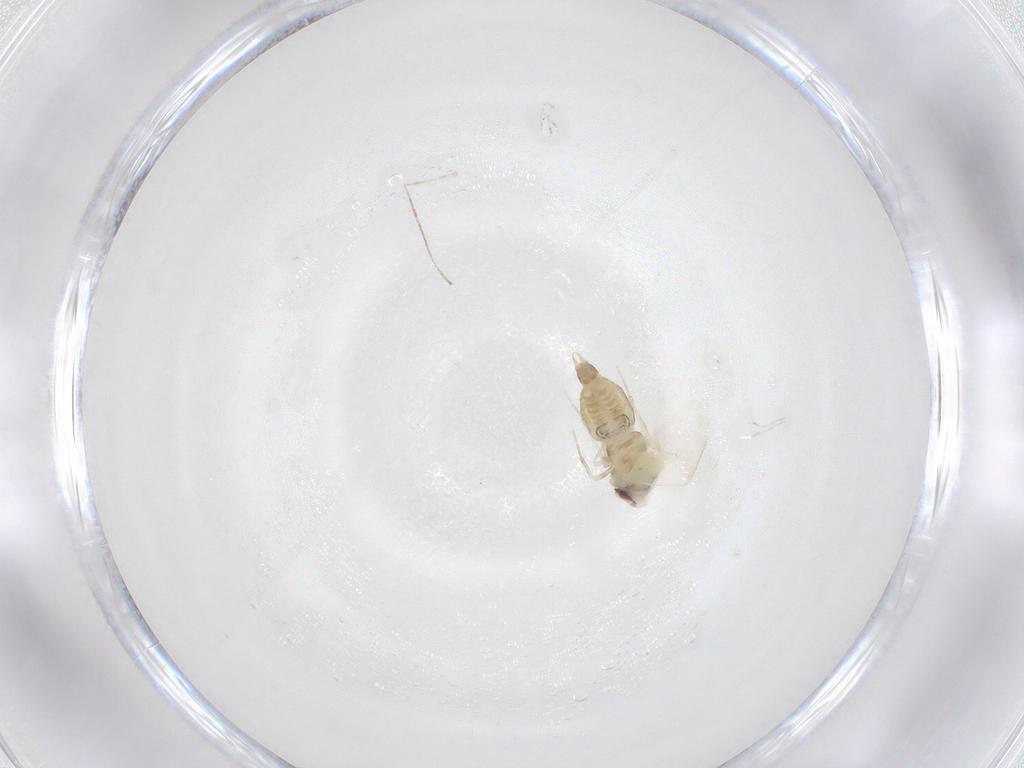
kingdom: Animalia
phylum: Arthropoda
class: Insecta
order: Hemiptera
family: Aleyrodidae
